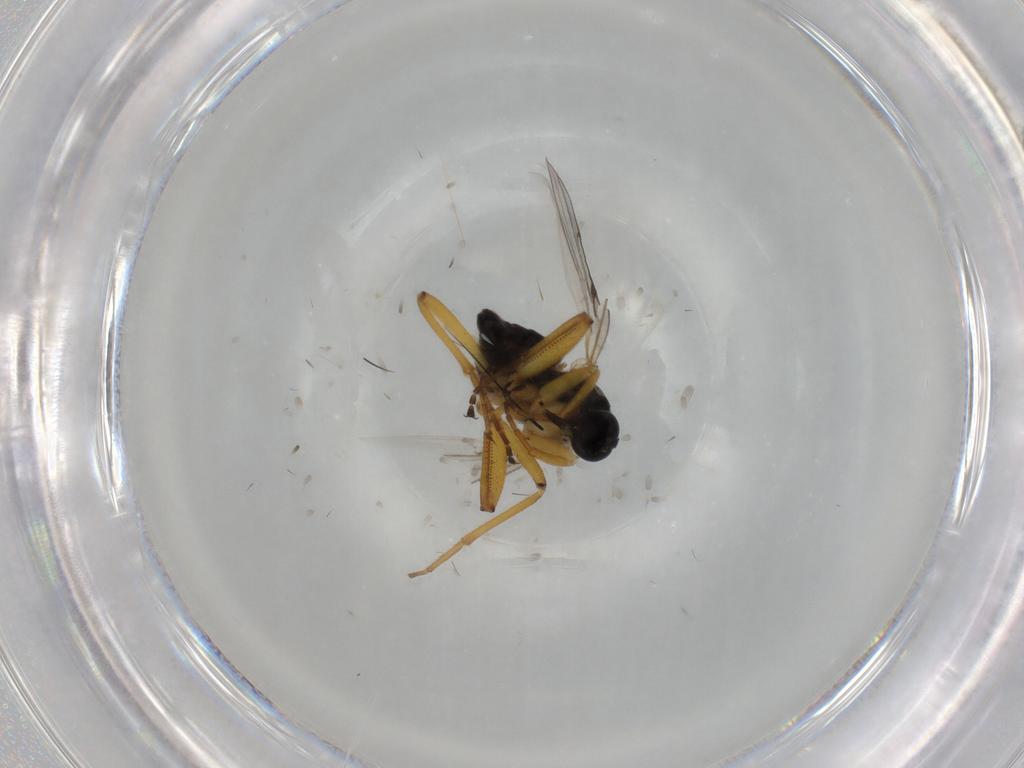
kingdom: Animalia
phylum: Arthropoda
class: Insecta
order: Diptera
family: Hybotidae
